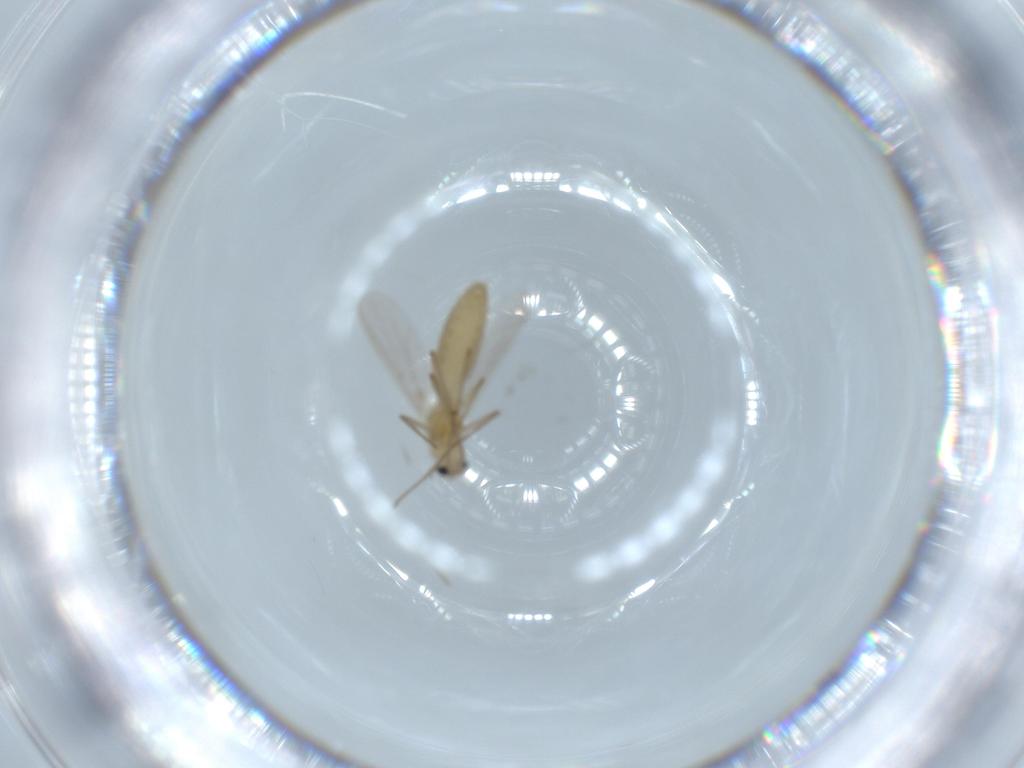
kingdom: Animalia
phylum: Arthropoda
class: Insecta
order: Diptera
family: Chironomidae
